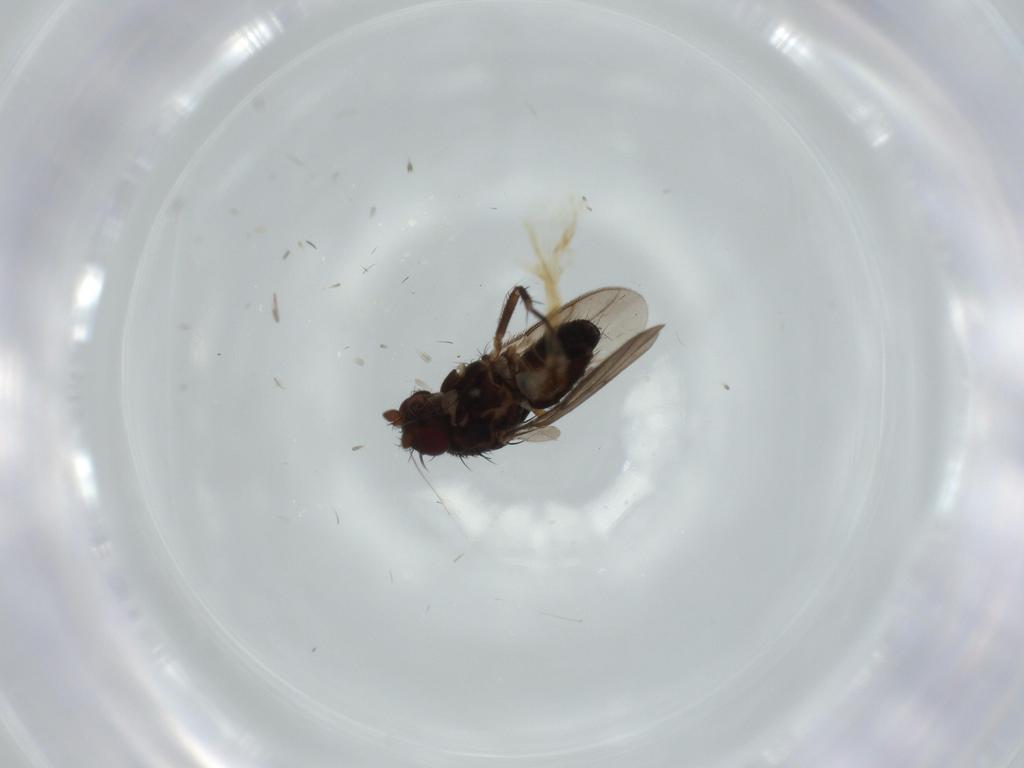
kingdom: Animalia
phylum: Arthropoda
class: Insecta
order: Diptera
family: Sphaeroceridae
